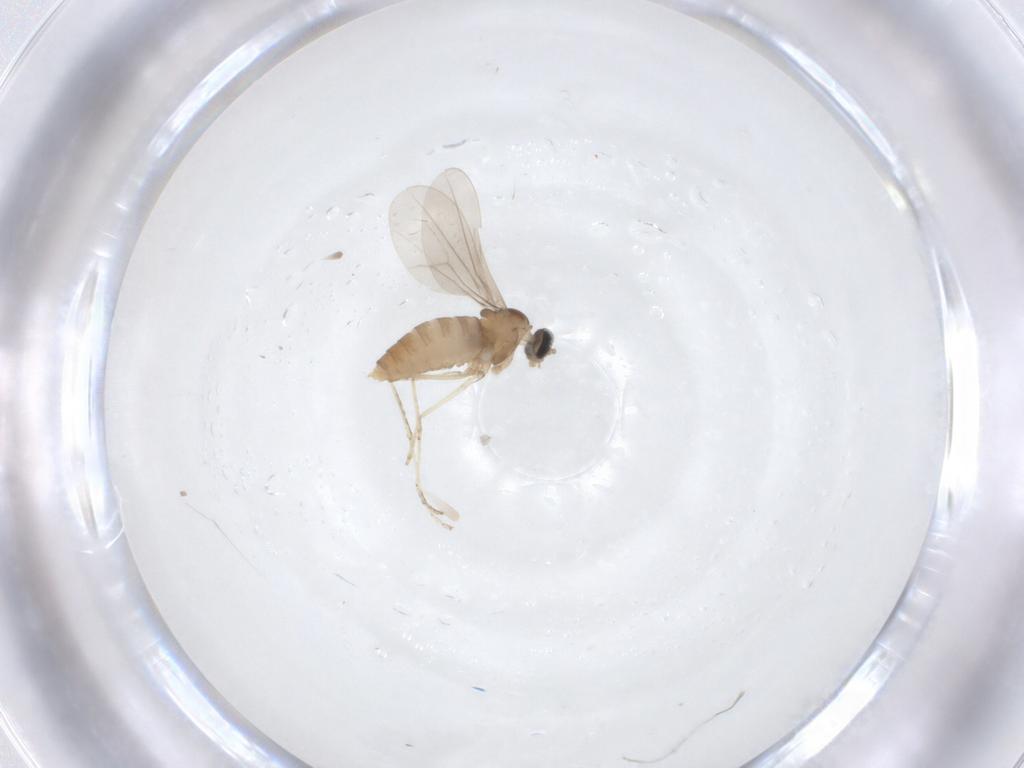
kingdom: Animalia
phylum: Arthropoda
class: Insecta
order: Diptera
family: Cecidomyiidae
